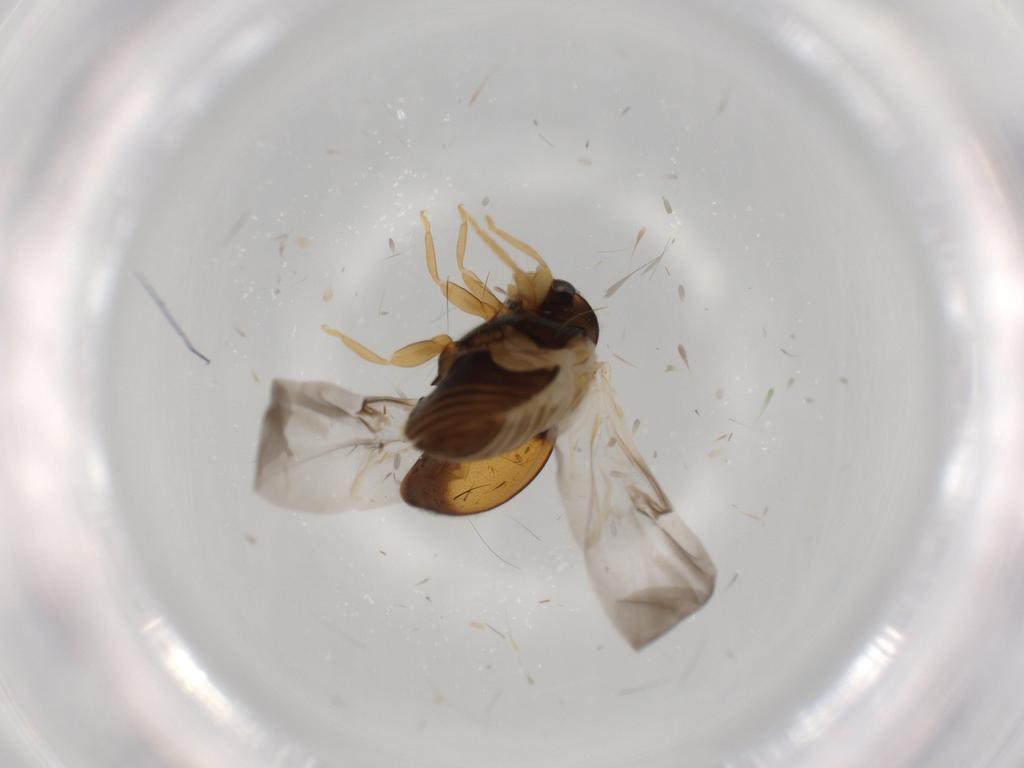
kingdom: Animalia
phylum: Arthropoda
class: Insecta
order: Coleoptera
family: Coccinellidae
